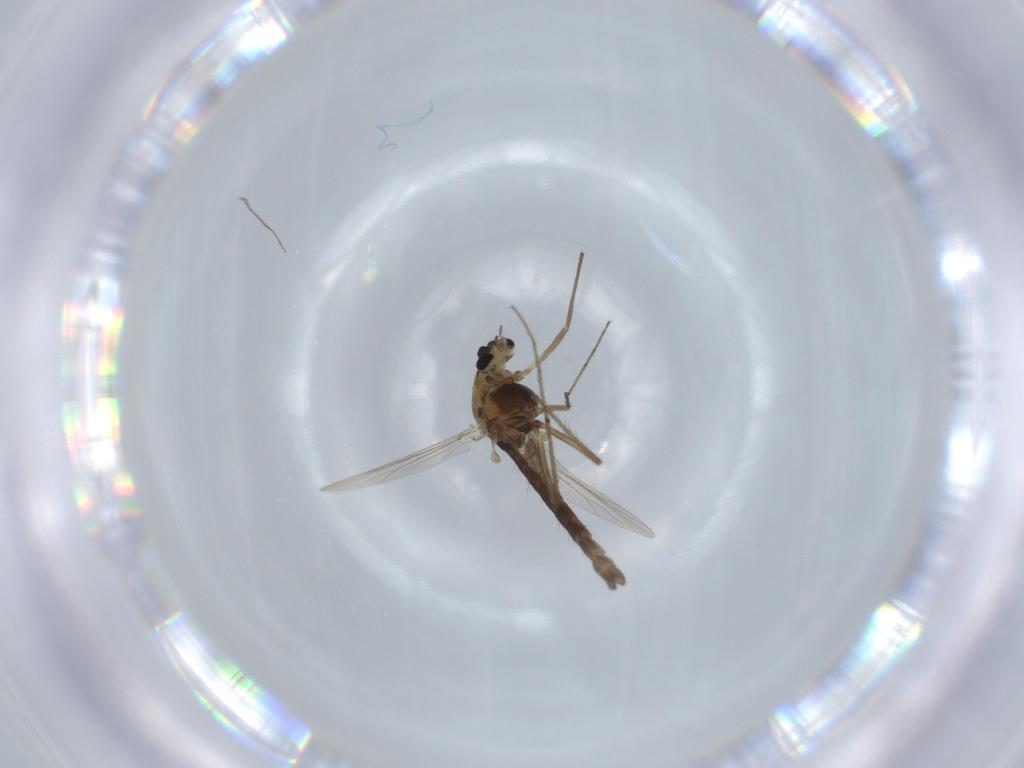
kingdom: Animalia
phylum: Arthropoda
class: Insecta
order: Diptera
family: Chironomidae
